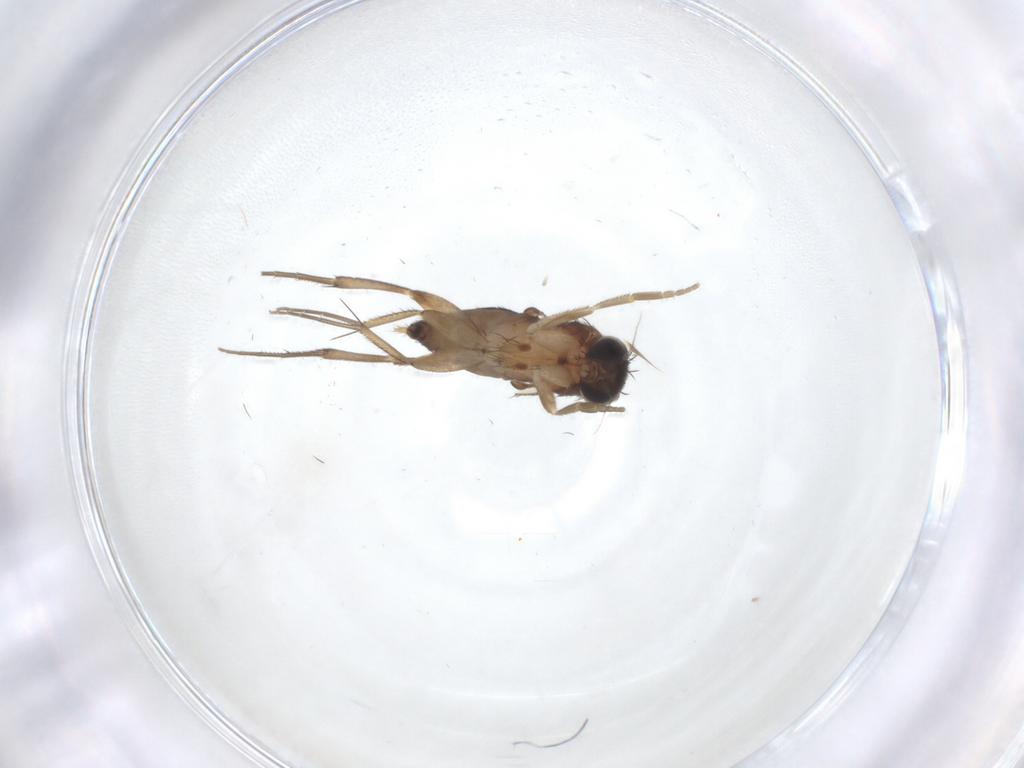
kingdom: Animalia
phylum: Arthropoda
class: Insecta
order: Diptera
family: Phoridae
